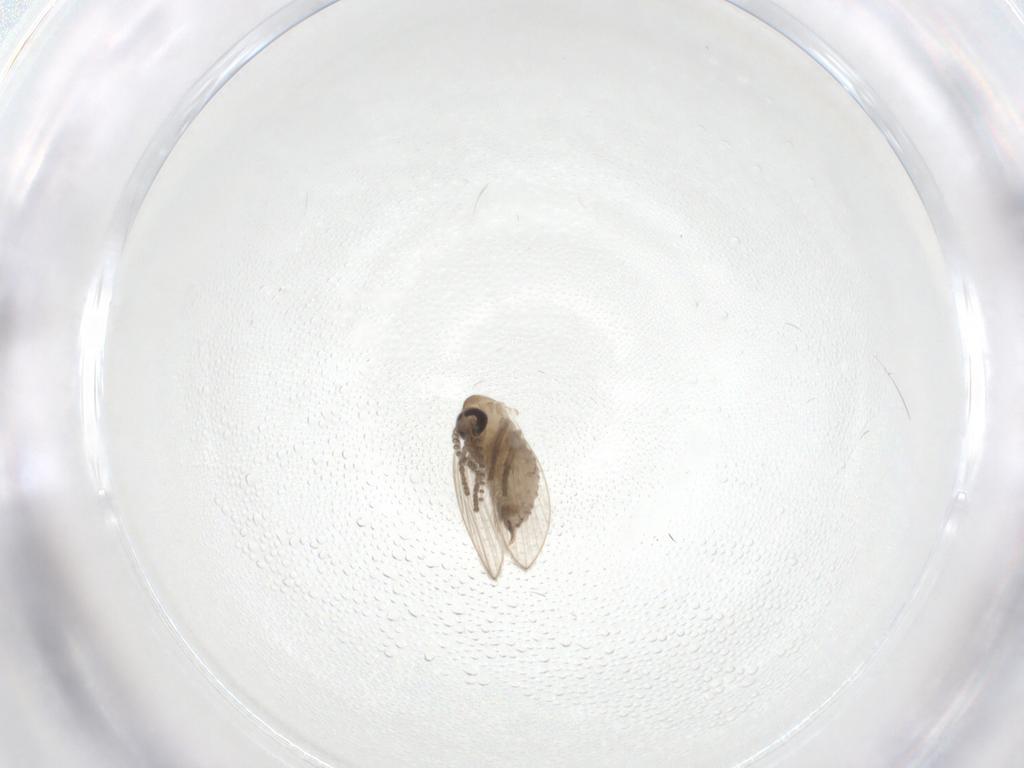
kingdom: Animalia
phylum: Arthropoda
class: Insecta
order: Diptera
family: Psychodidae
